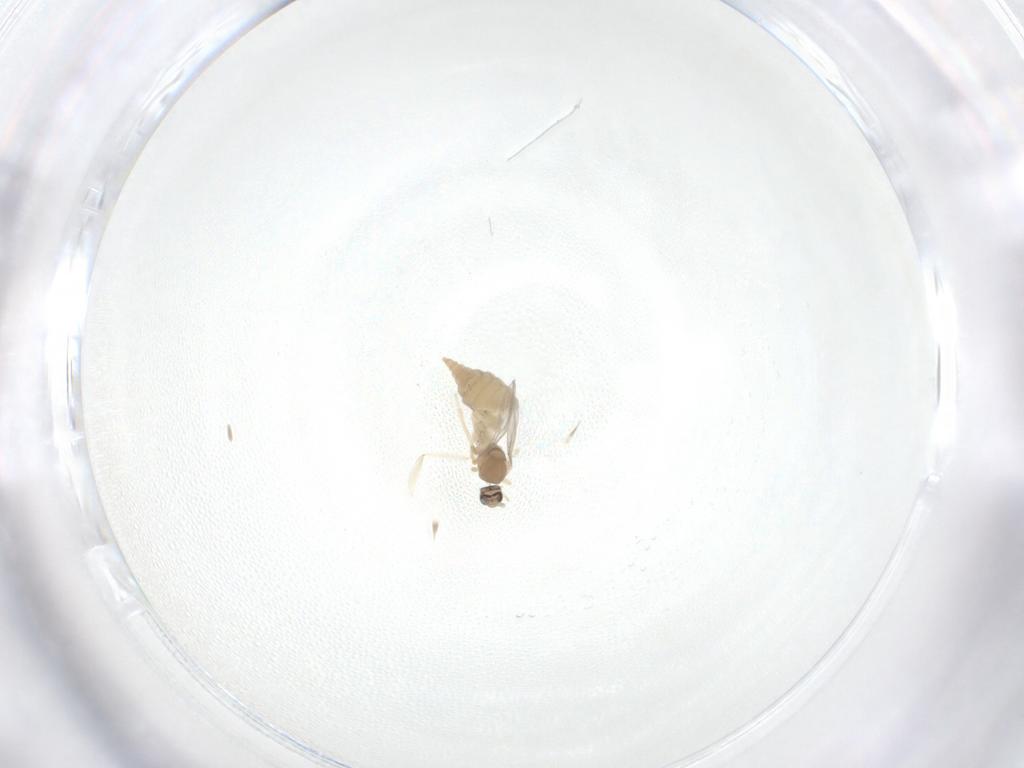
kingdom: Animalia
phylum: Arthropoda
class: Insecta
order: Diptera
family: Cecidomyiidae
